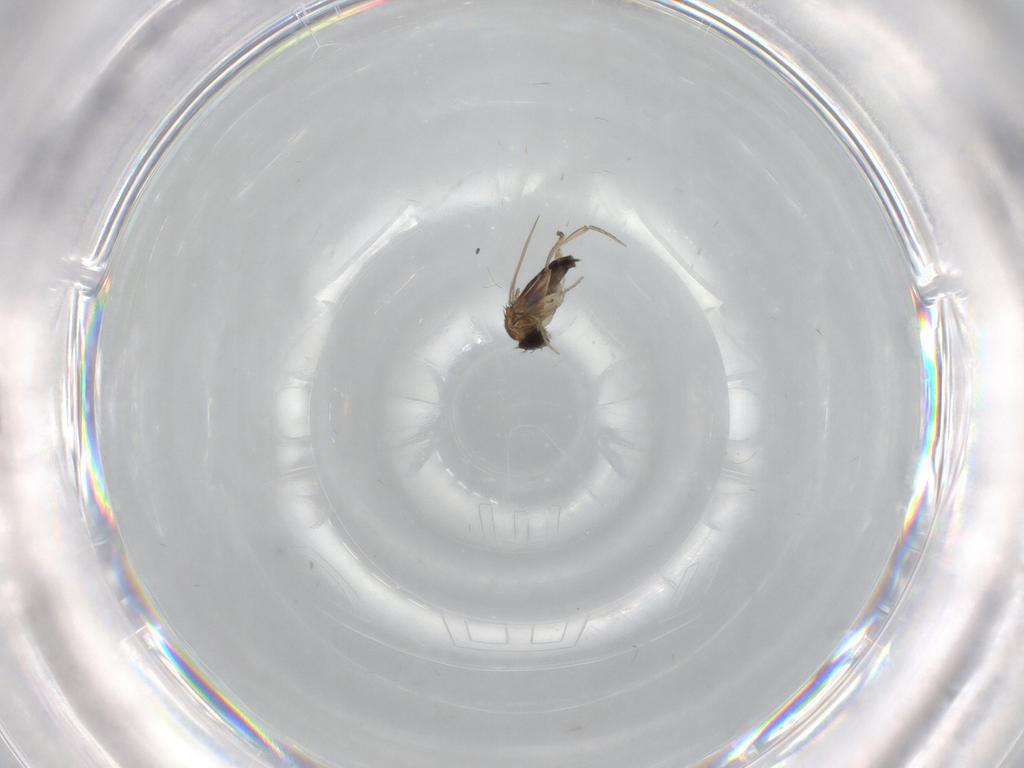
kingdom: Animalia
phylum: Arthropoda
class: Insecta
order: Diptera
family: Phoridae
